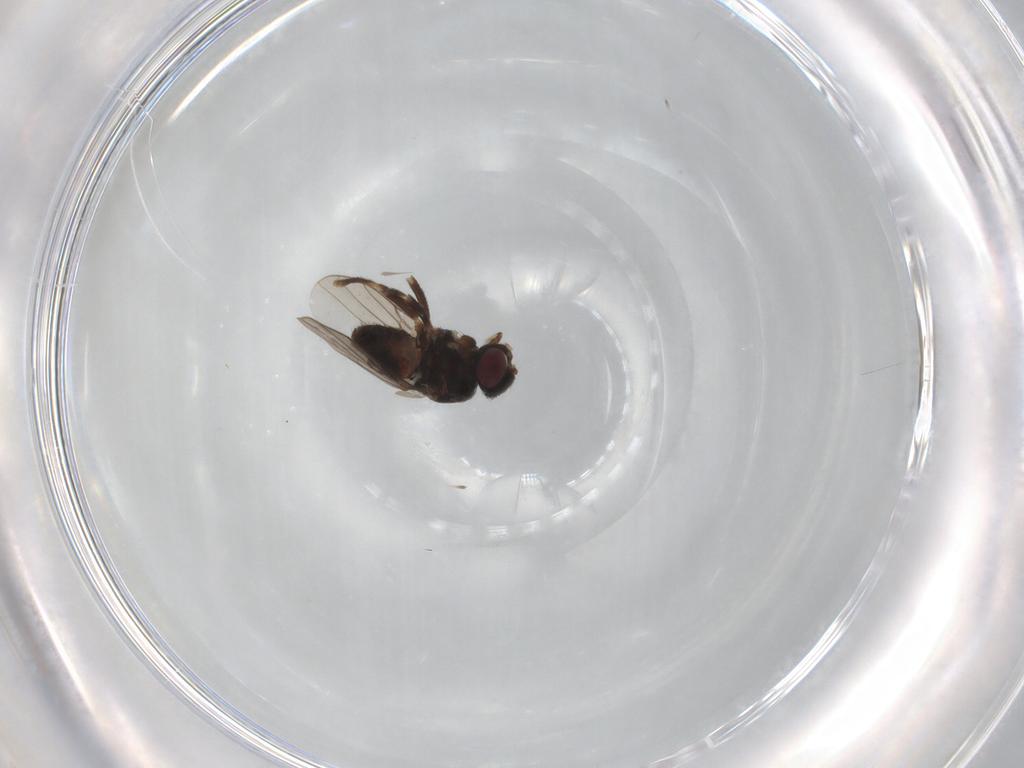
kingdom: Animalia
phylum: Arthropoda
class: Insecta
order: Diptera
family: Chloropidae
